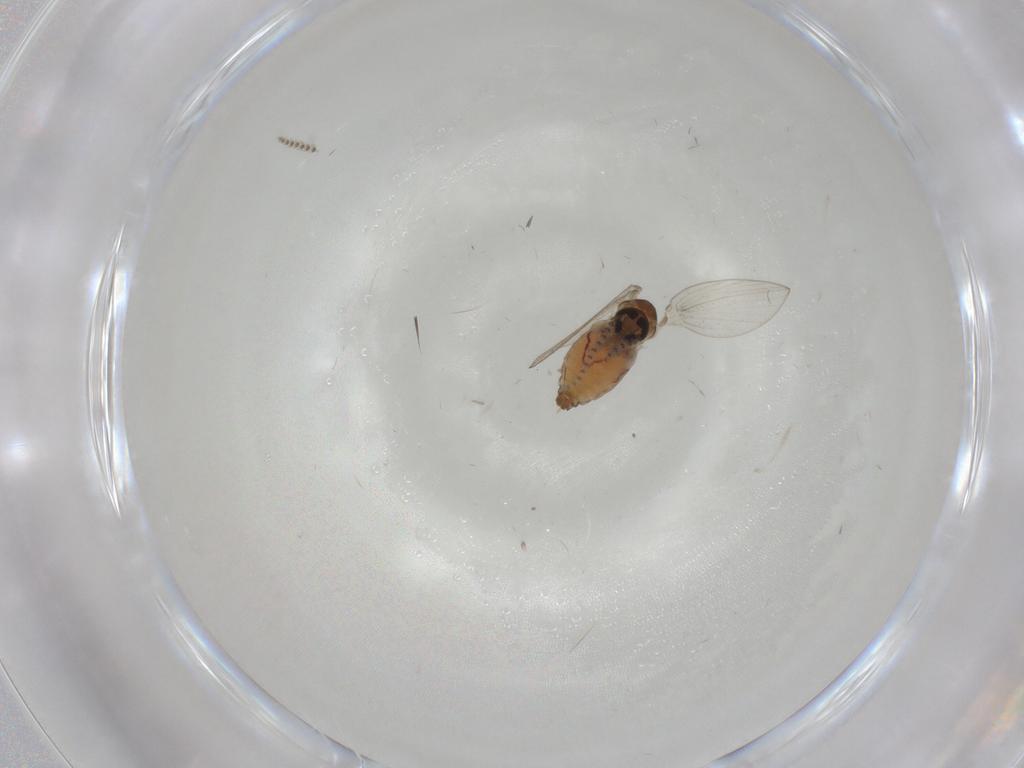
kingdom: Animalia
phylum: Arthropoda
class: Insecta
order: Diptera
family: Psychodidae
